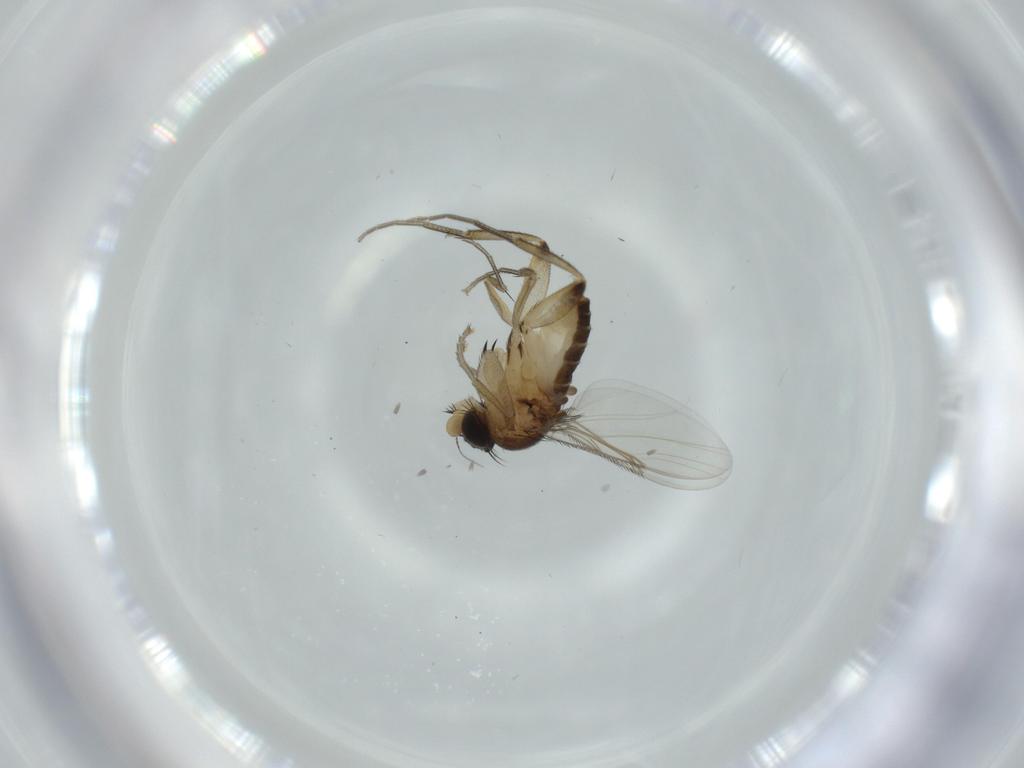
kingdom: Animalia
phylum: Arthropoda
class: Insecta
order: Diptera
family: Phoridae
